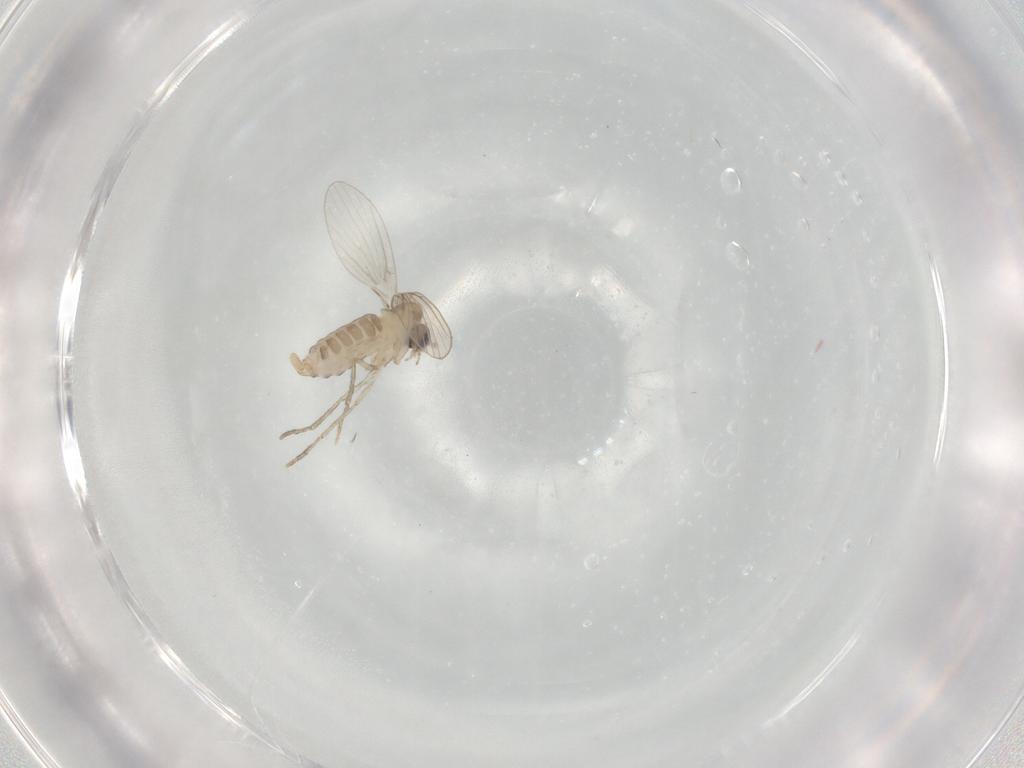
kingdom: Animalia
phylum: Arthropoda
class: Insecta
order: Diptera
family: Psychodidae
